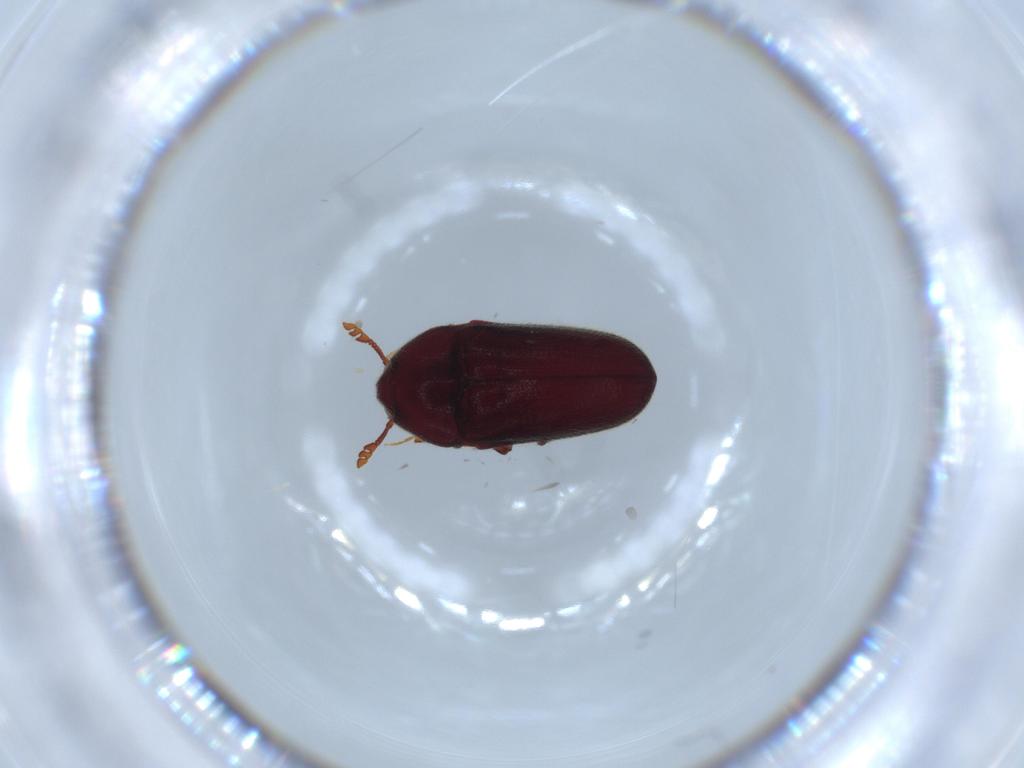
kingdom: Animalia
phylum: Arthropoda
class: Insecta
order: Coleoptera
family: Throscidae
